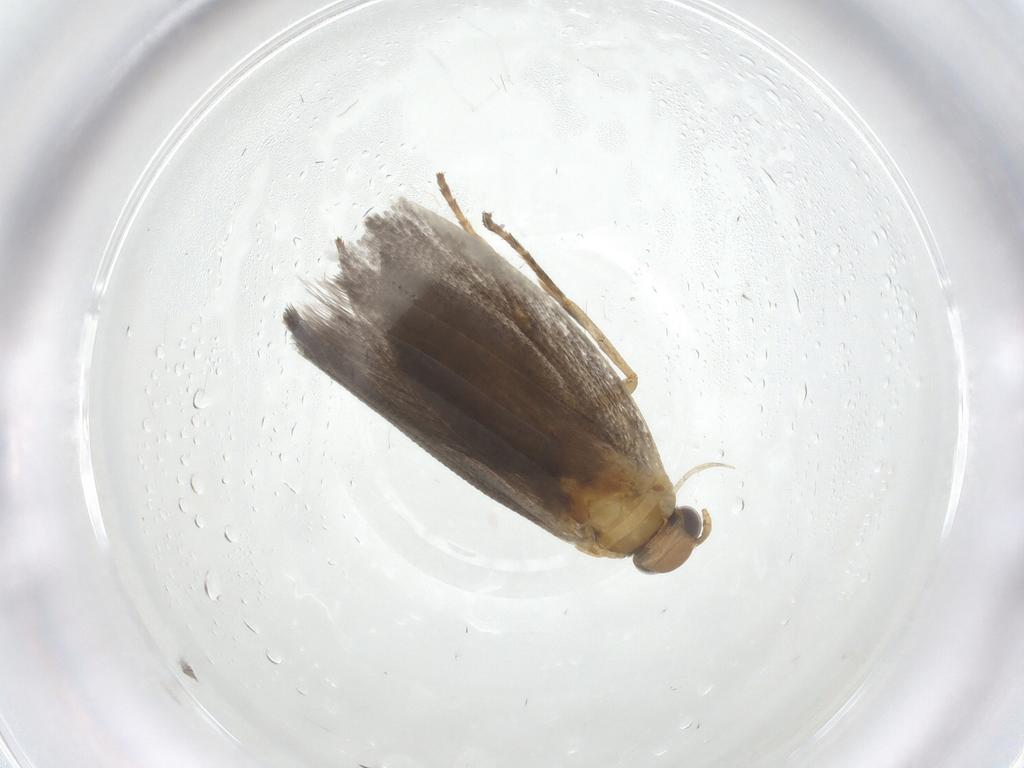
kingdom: Animalia
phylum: Arthropoda
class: Insecta
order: Lepidoptera
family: Yponomeutidae
